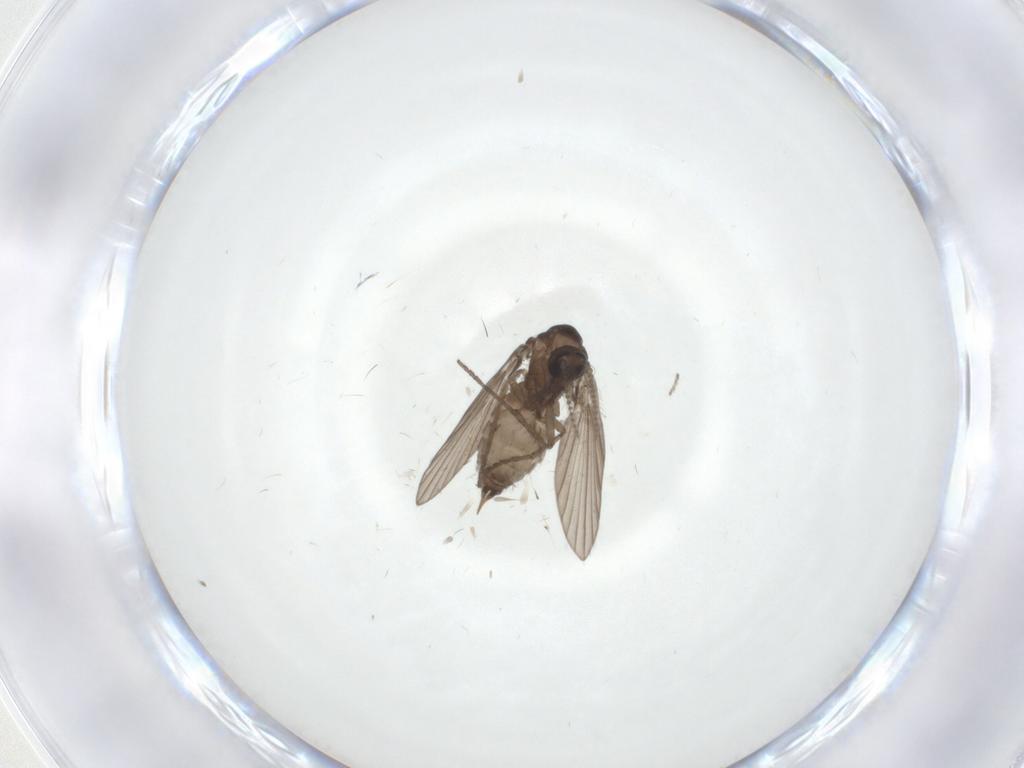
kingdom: Animalia
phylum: Arthropoda
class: Insecta
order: Diptera
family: Psychodidae
